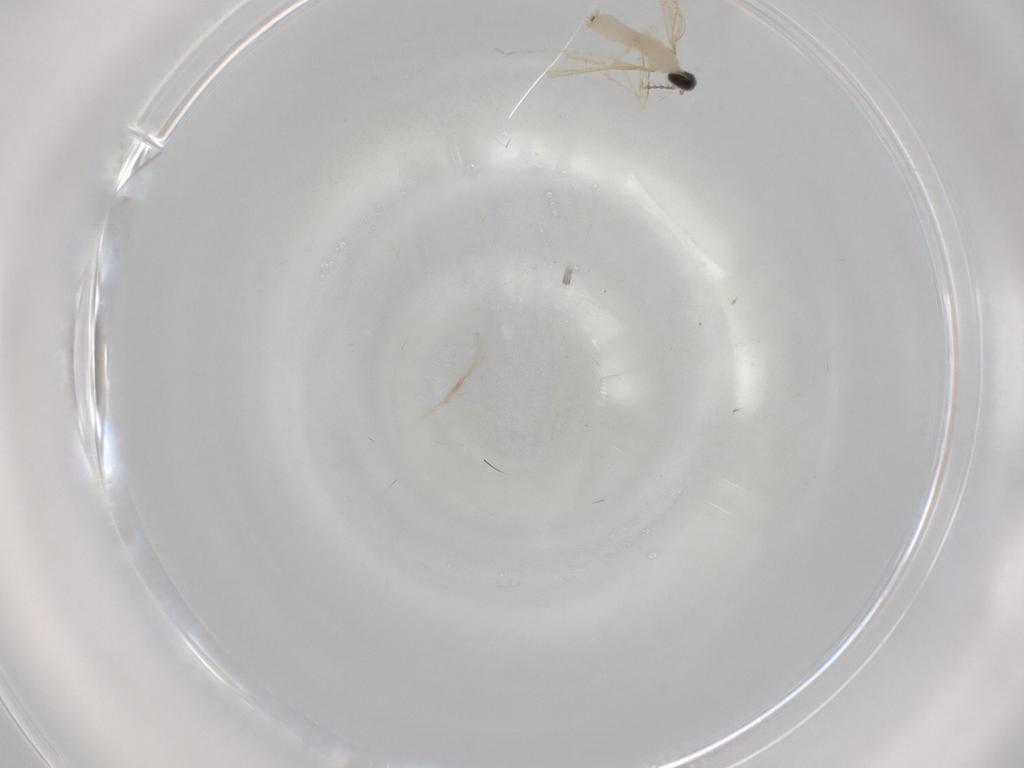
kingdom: Animalia
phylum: Arthropoda
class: Insecta
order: Diptera
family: Cecidomyiidae
